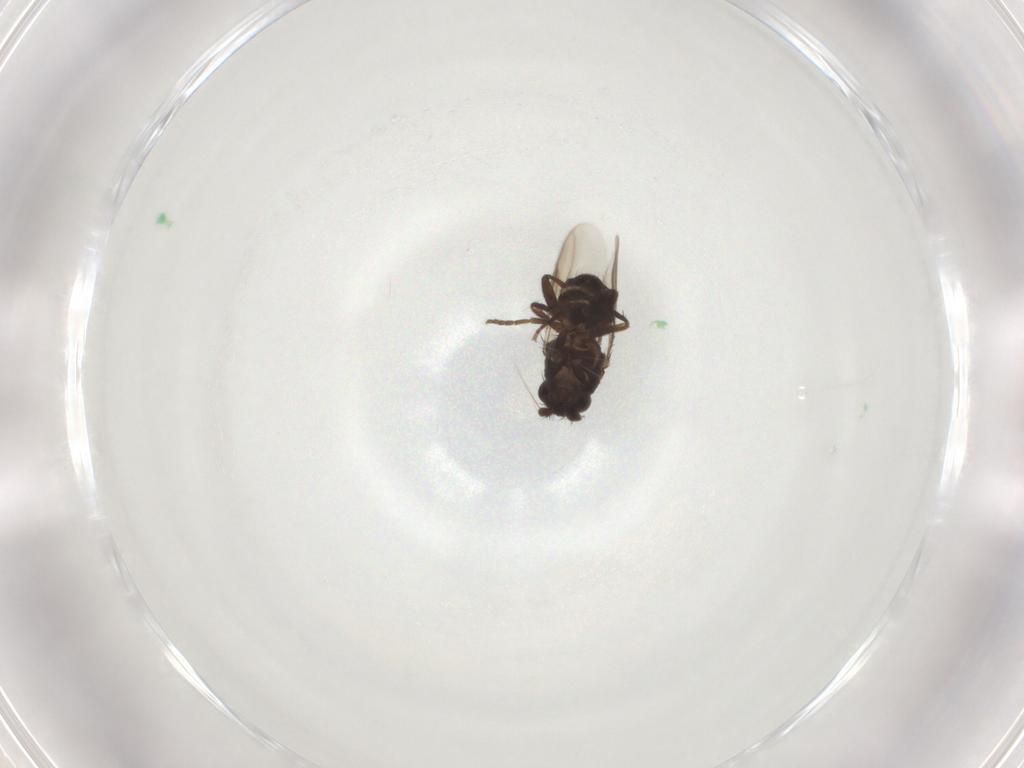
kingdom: Animalia
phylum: Arthropoda
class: Insecta
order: Diptera
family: Sphaeroceridae
